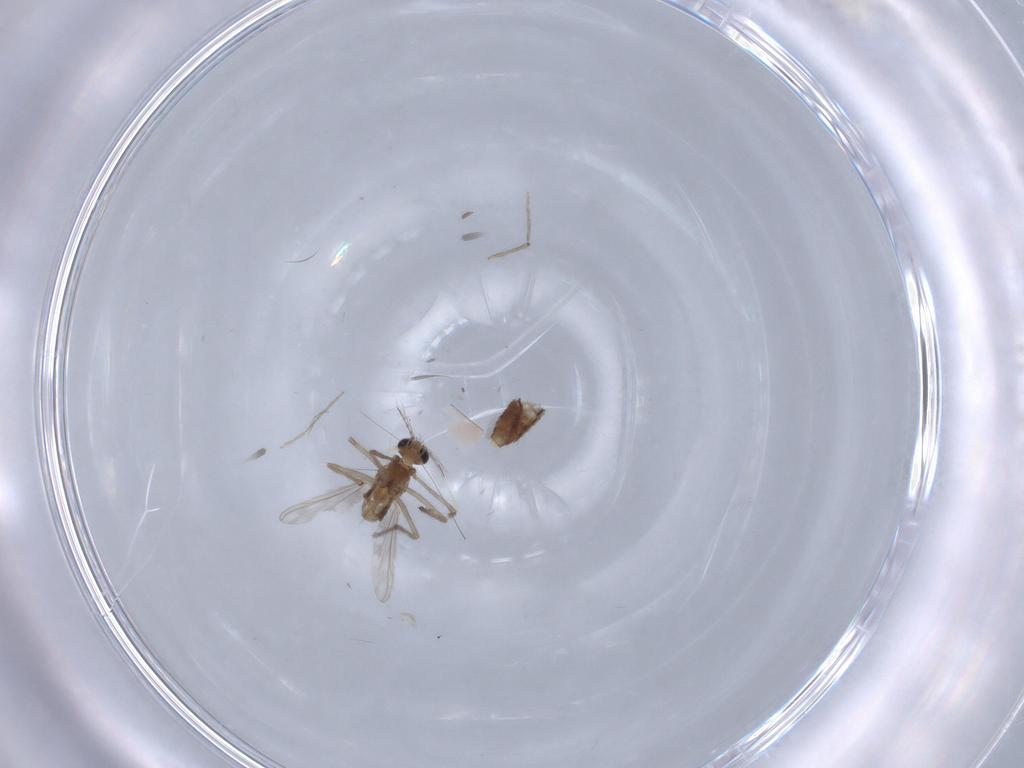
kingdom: Animalia
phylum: Arthropoda
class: Insecta
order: Diptera
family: Chironomidae
